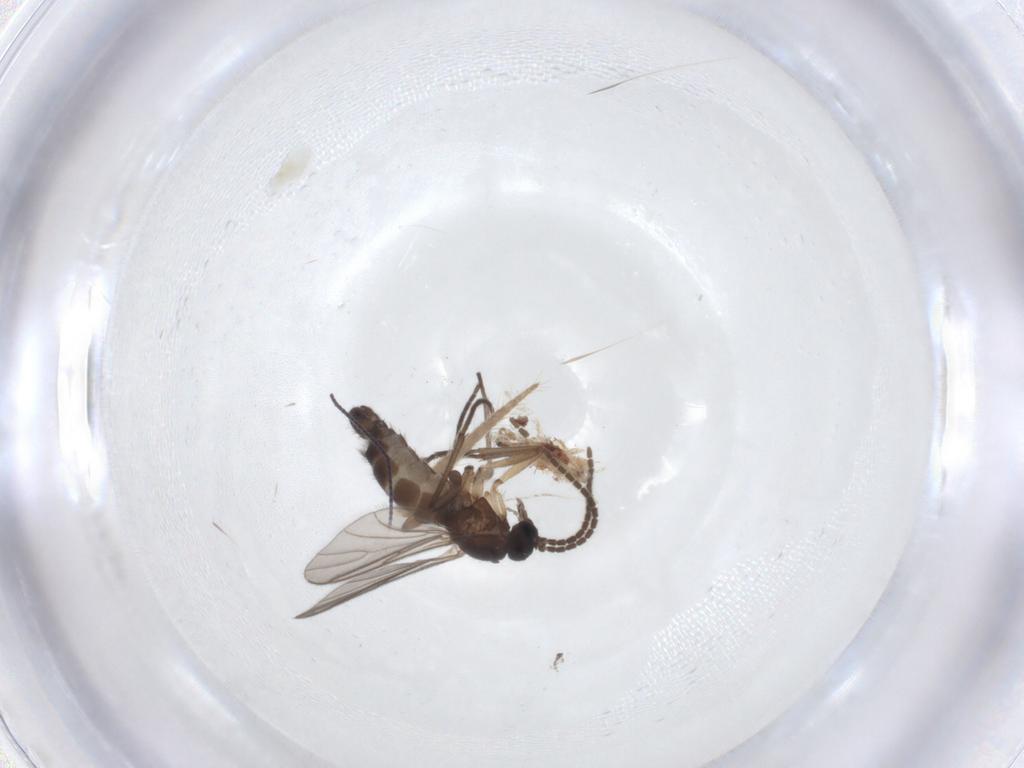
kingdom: Animalia
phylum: Arthropoda
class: Insecta
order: Diptera
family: Sciaridae
